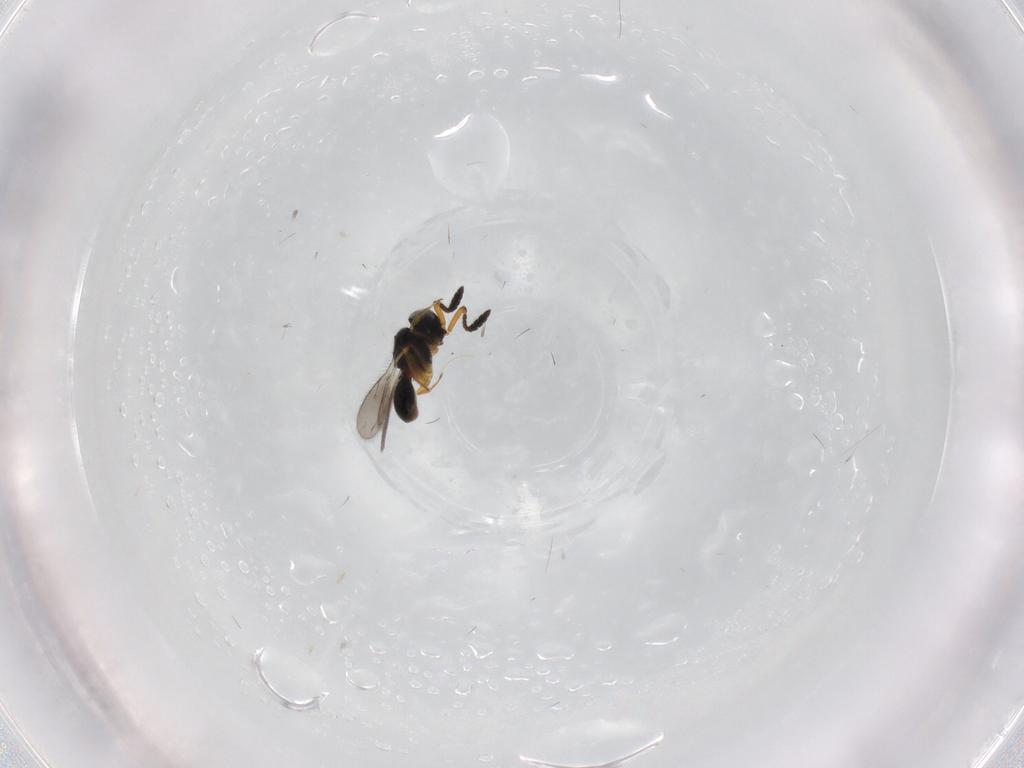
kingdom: Animalia
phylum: Arthropoda
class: Insecta
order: Hymenoptera
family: Scelionidae
